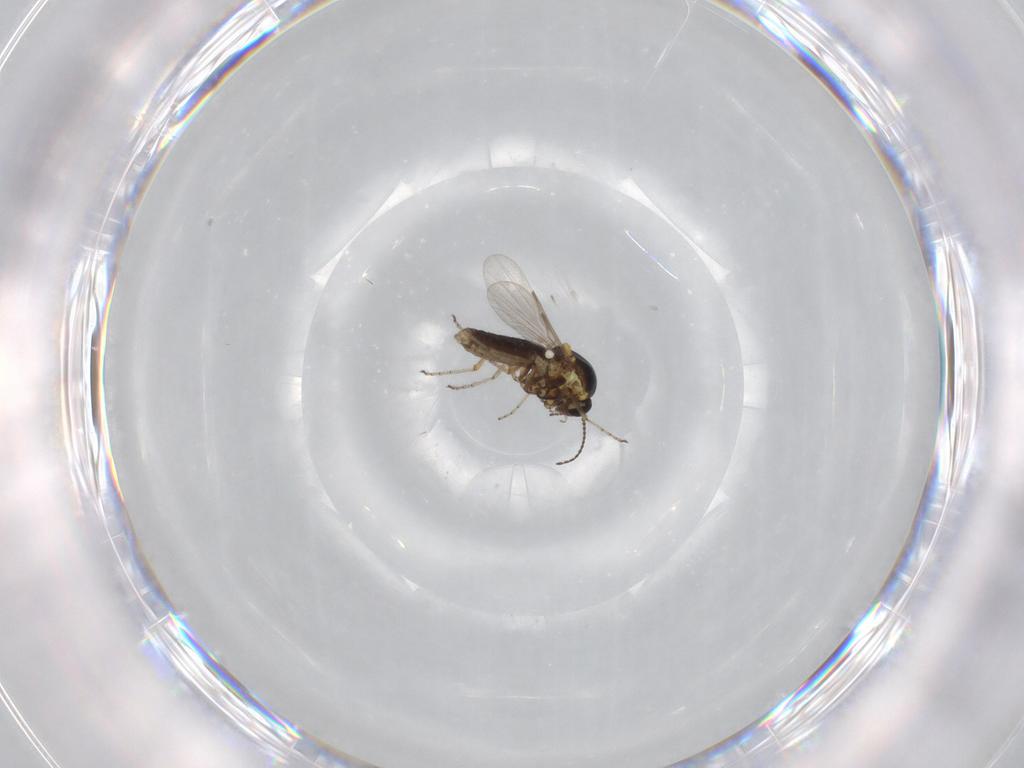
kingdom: Animalia
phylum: Arthropoda
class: Insecta
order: Diptera
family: Ceratopogonidae
